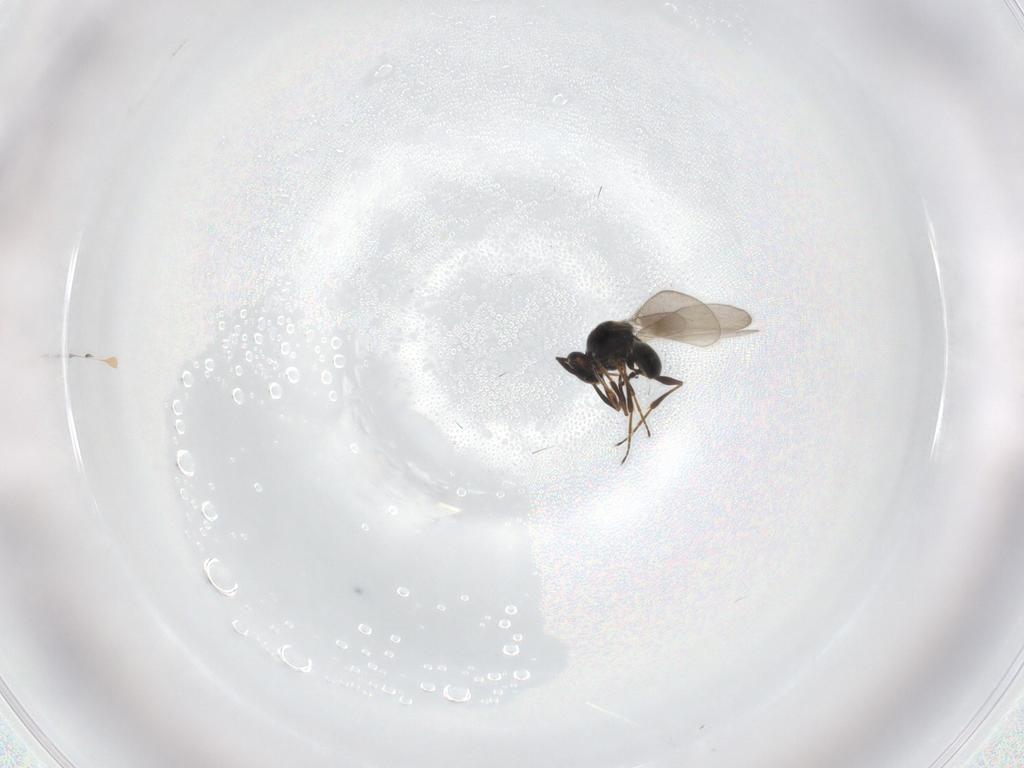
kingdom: Animalia
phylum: Arthropoda
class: Insecta
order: Hymenoptera
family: Platygastridae
